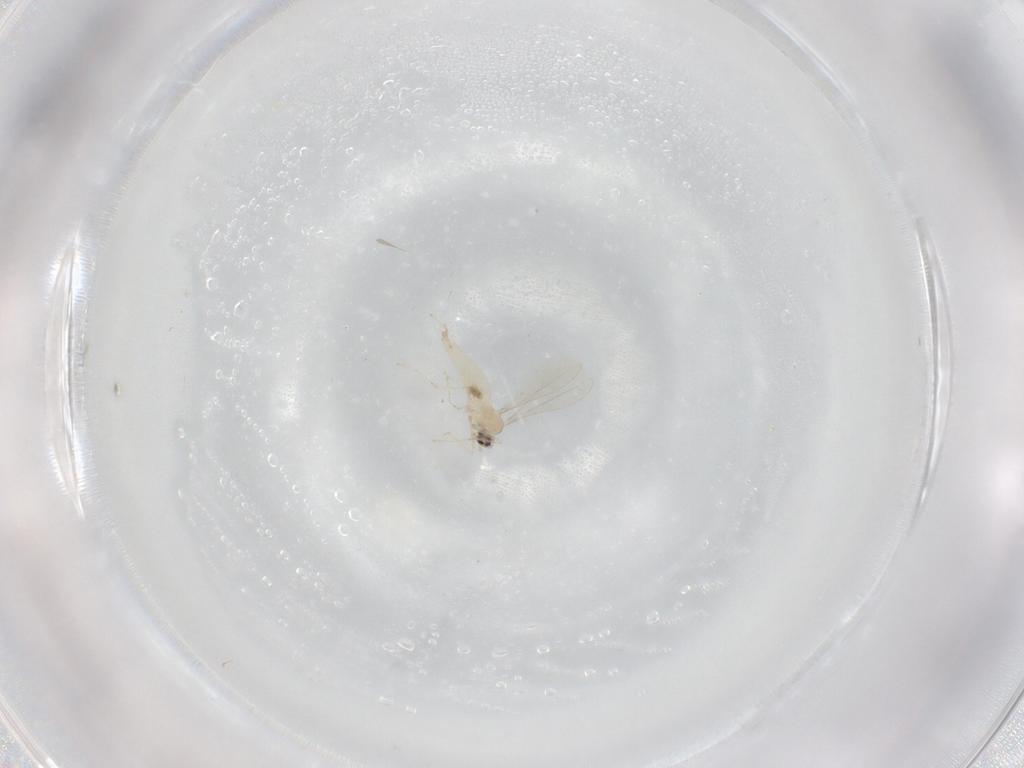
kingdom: Animalia
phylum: Arthropoda
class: Insecta
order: Diptera
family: Cecidomyiidae
